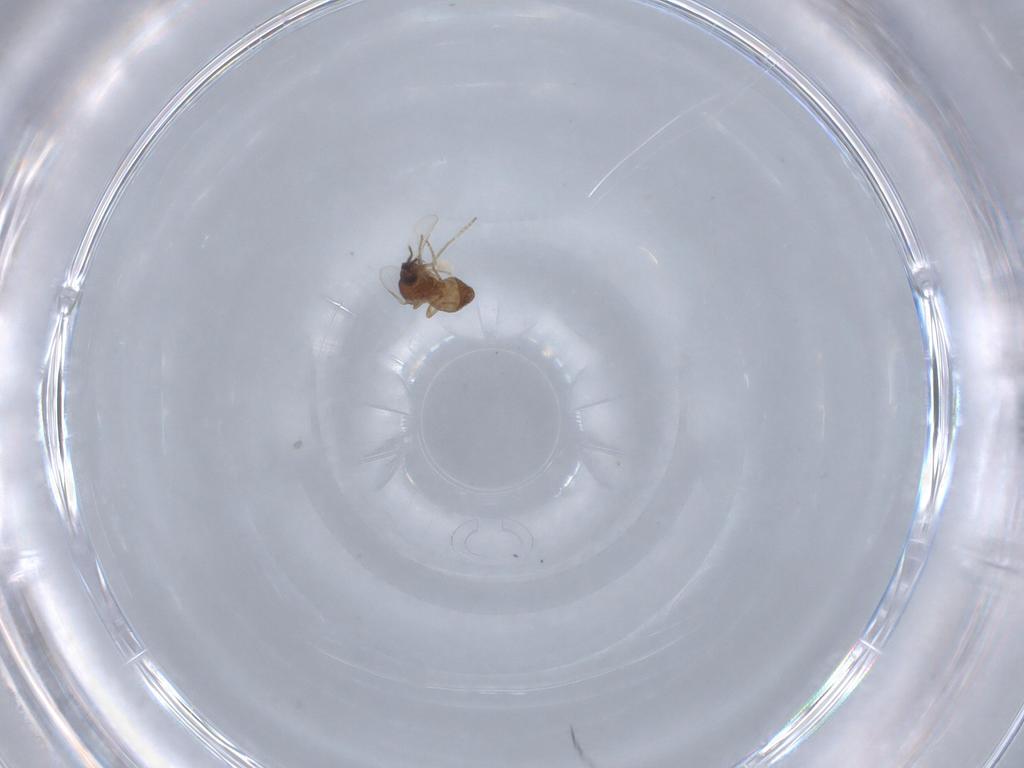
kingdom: Animalia
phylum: Arthropoda
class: Insecta
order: Diptera
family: Ceratopogonidae
